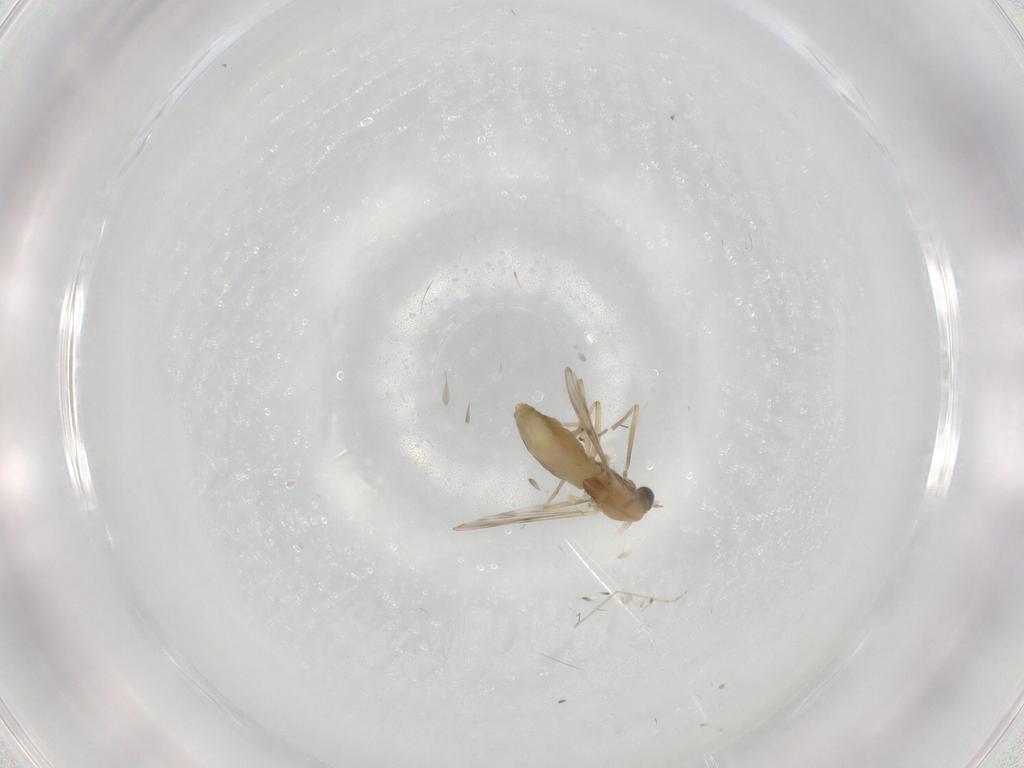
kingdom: Animalia
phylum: Arthropoda
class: Insecta
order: Diptera
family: Chironomidae
